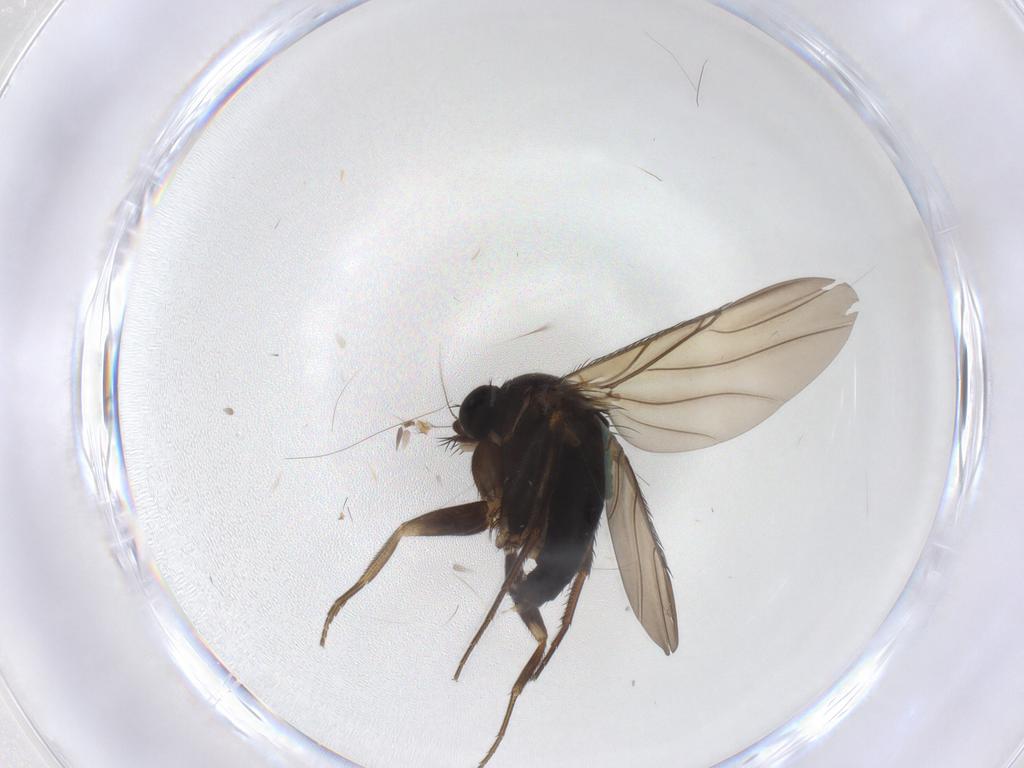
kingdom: Animalia
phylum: Arthropoda
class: Insecta
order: Diptera
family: Phoridae
